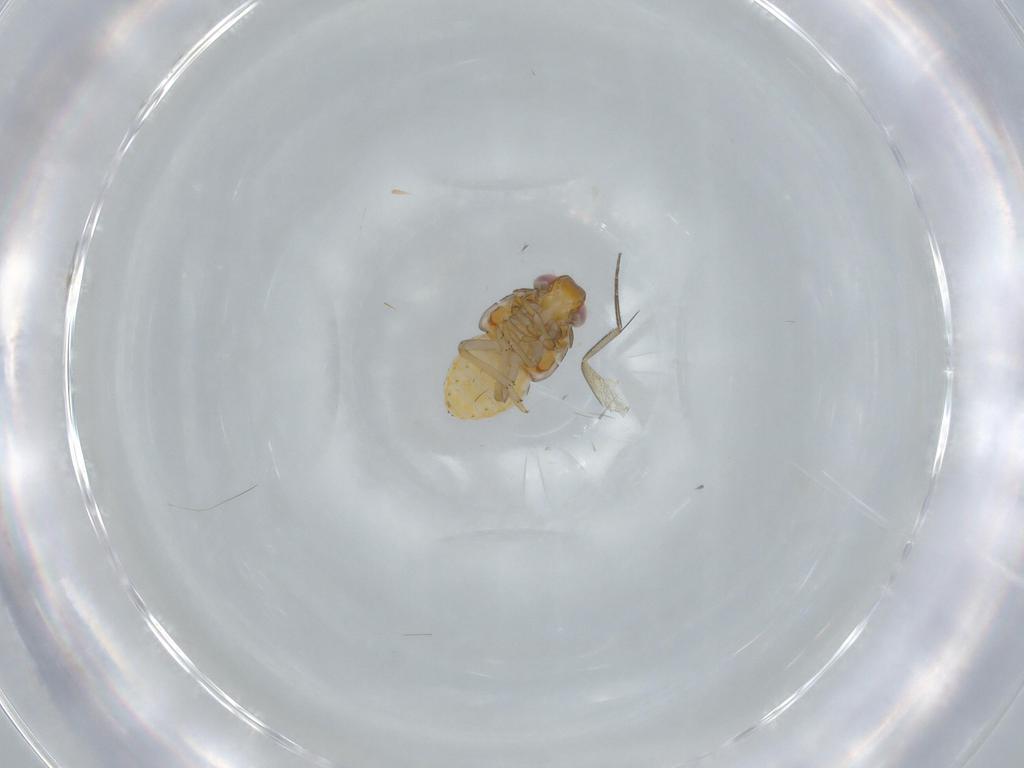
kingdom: Animalia
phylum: Arthropoda
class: Insecta
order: Hemiptera
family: Issidae
